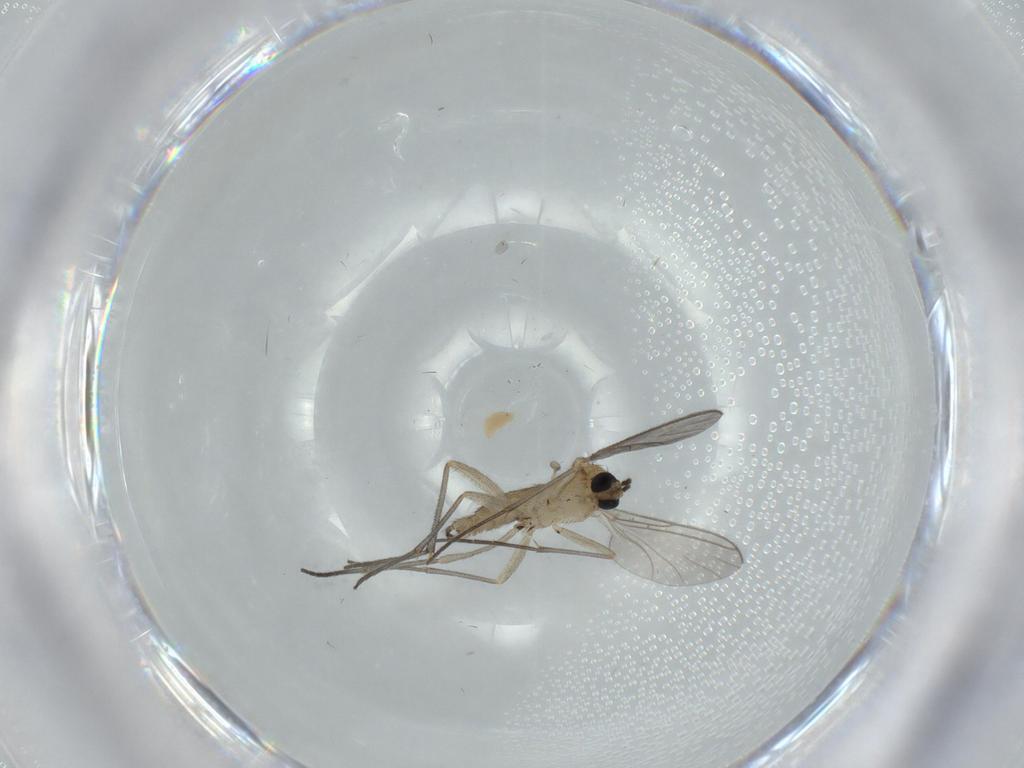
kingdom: Animalia
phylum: Arthropoda
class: Insecta
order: Diptera
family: Sciaridae
